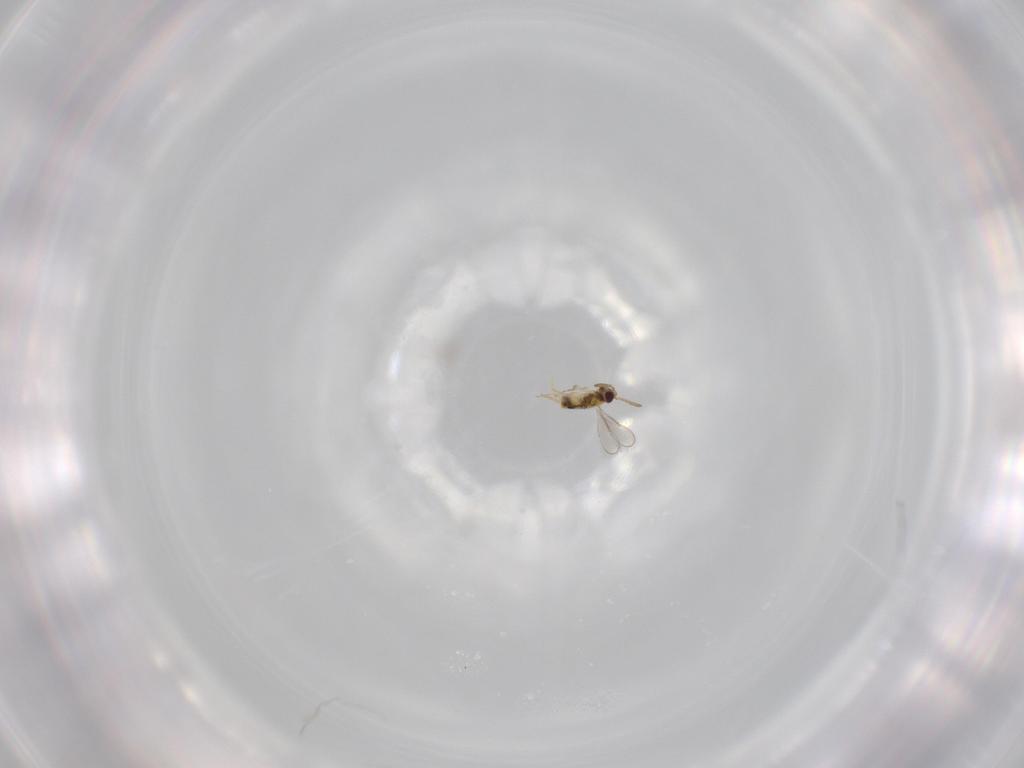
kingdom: Animalia
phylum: Arthropoda
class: Insecta
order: Hymenoptera
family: Aphelinidae
